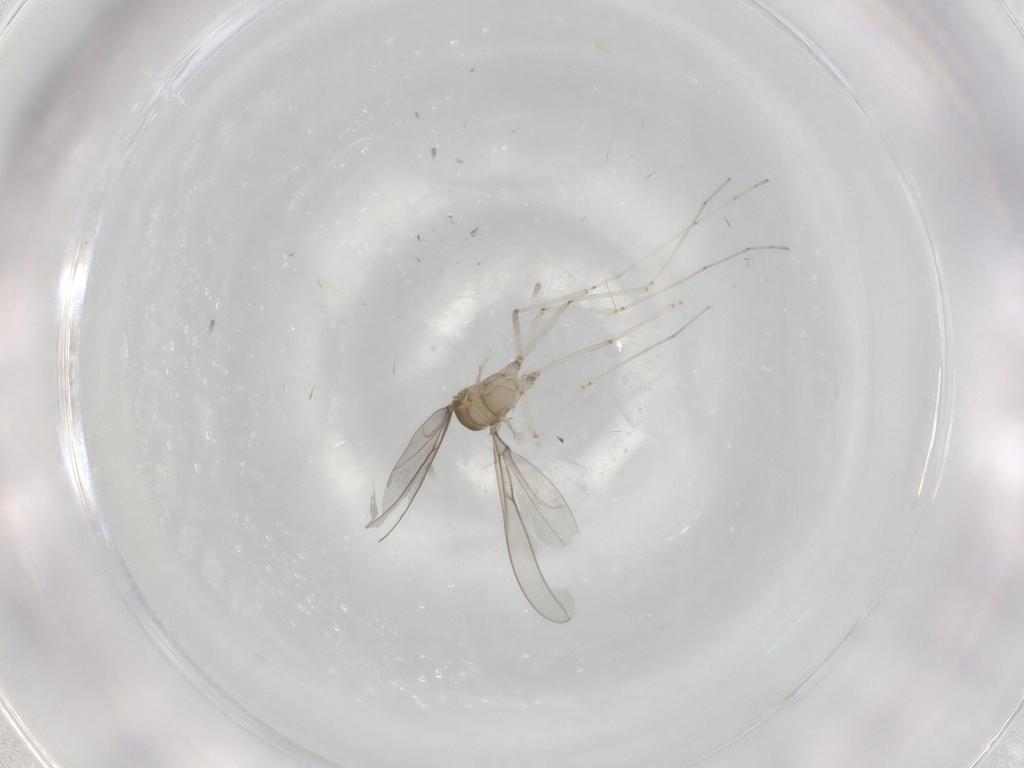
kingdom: Animalia
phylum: Arthropoda
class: Insecta
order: Diptera
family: Cecidomyiidae
